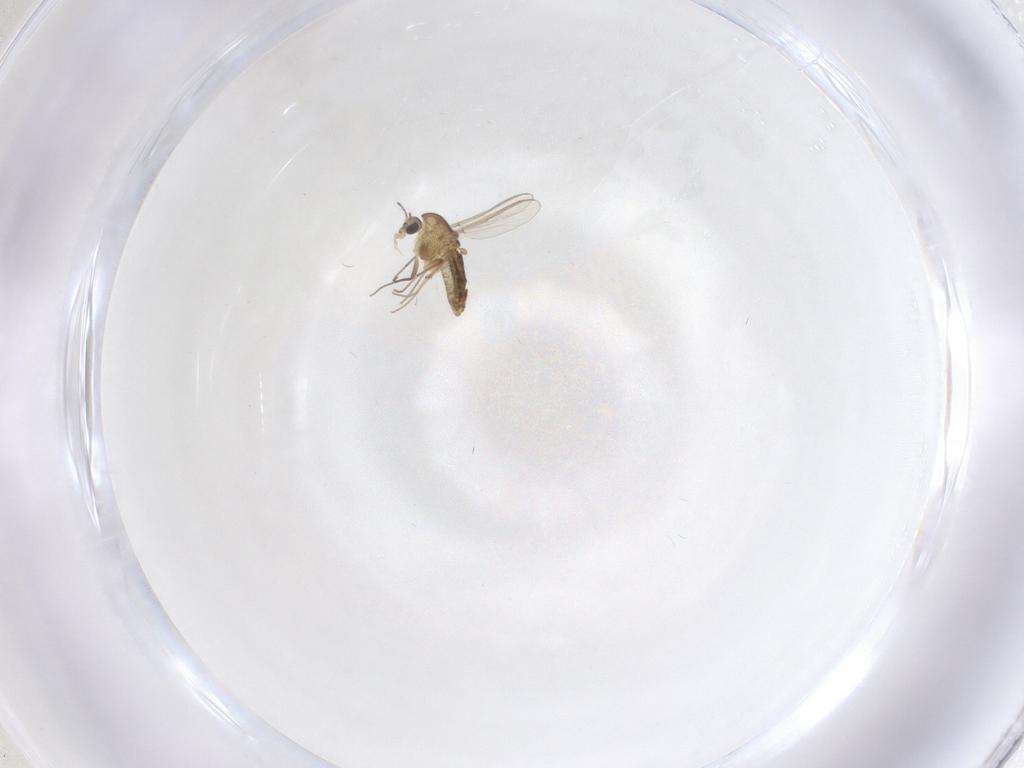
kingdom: Animalia
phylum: Arthropoda
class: Insecta
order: Diptera
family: Chironomidae
